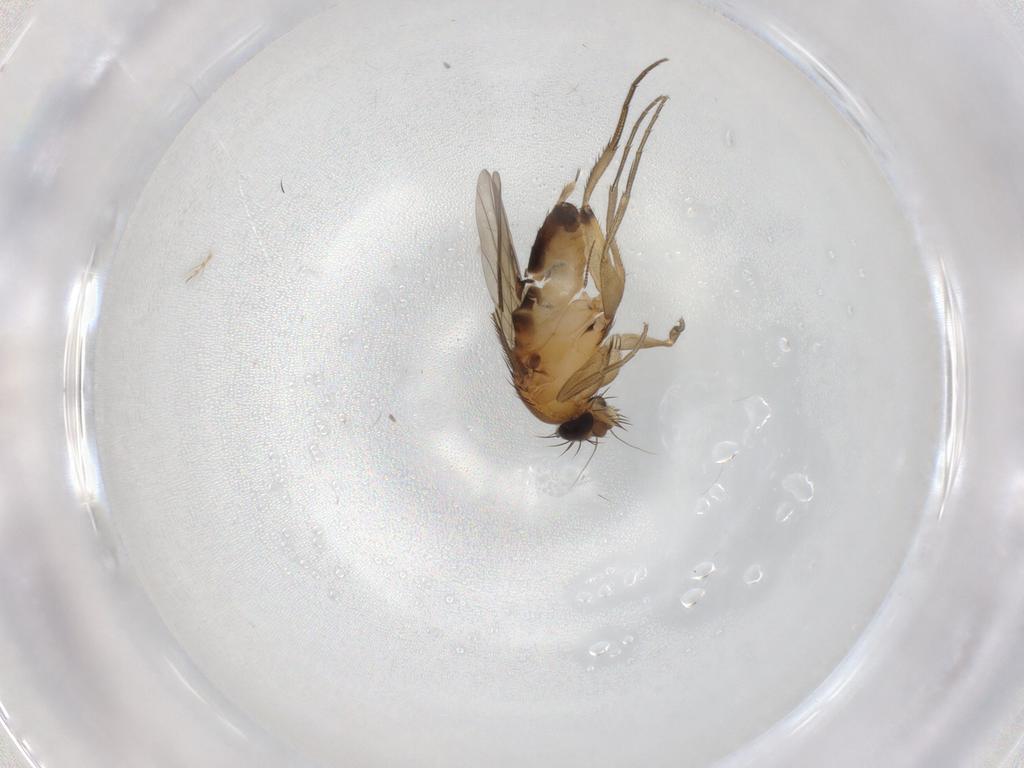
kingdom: Animalia
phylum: Arthropoda
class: Insecta
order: Diptera
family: Phoridae
